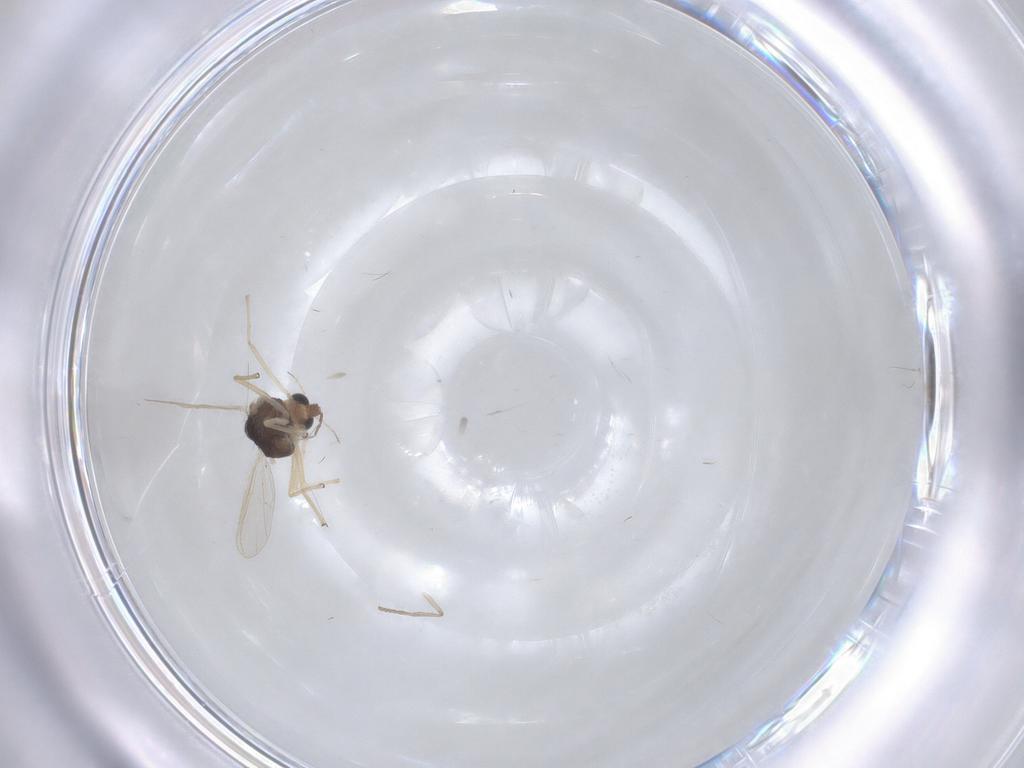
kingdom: Animalia
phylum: Arthropoda
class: Insecta
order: Diptera
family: Chironomidae
